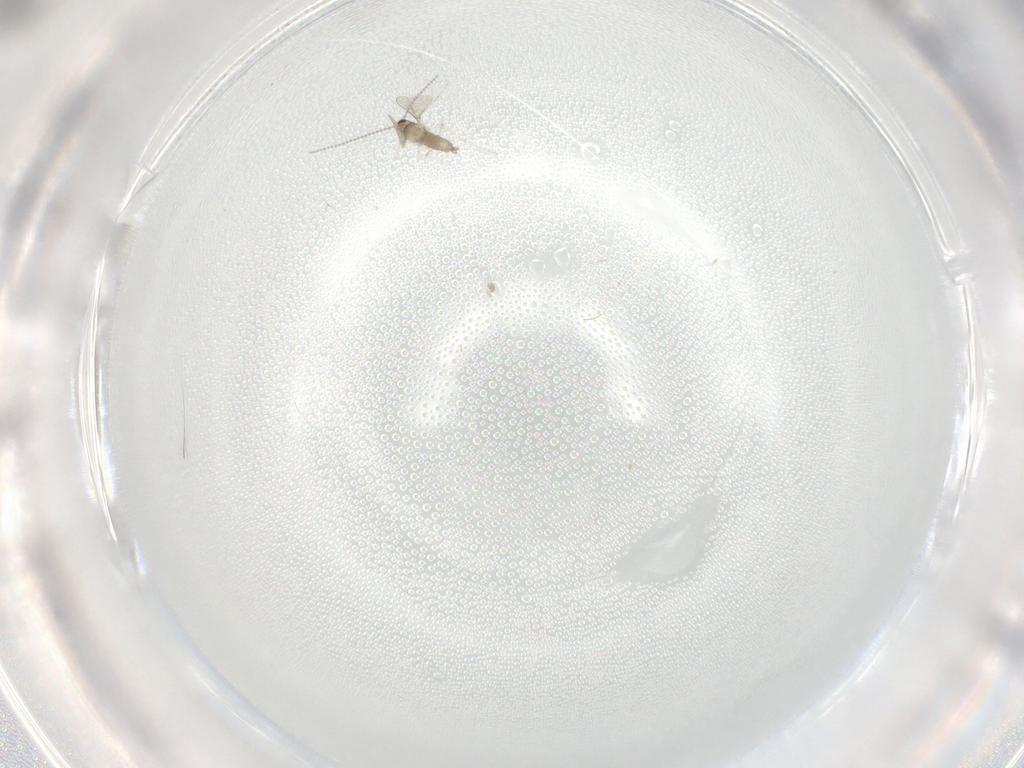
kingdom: Animalia
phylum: Arthropoda
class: Insecta
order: Diptera
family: Cecidomyiidae
